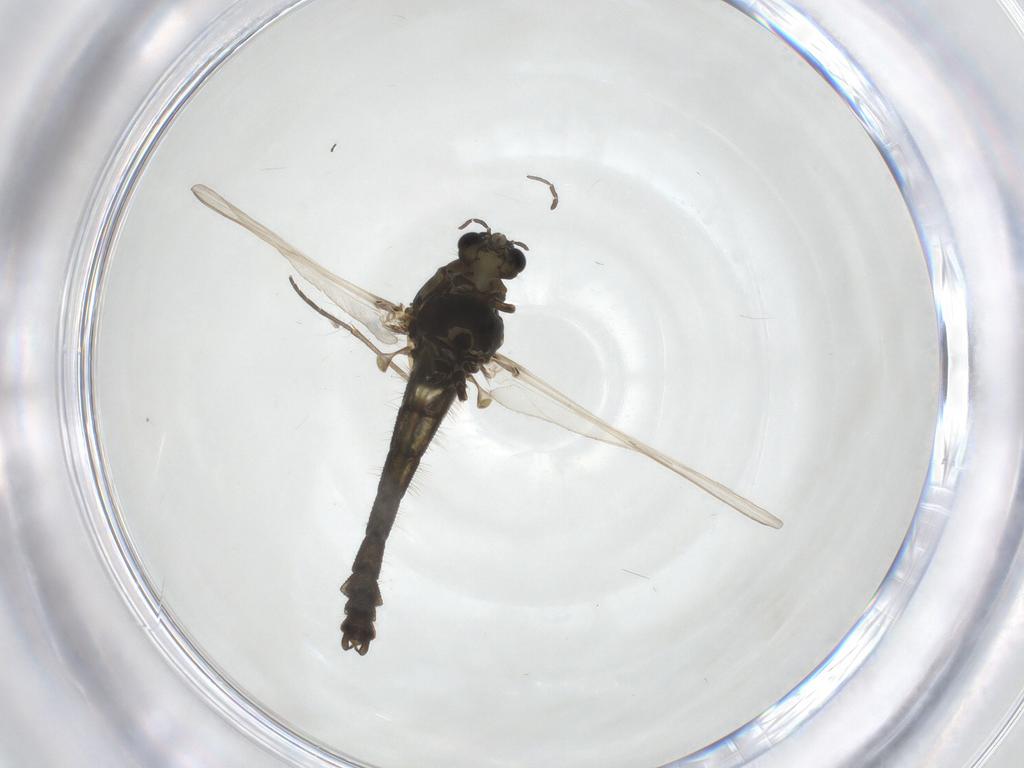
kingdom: Animalia
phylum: Arthropoda
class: Insecta
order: Diptera
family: Chironomidae
